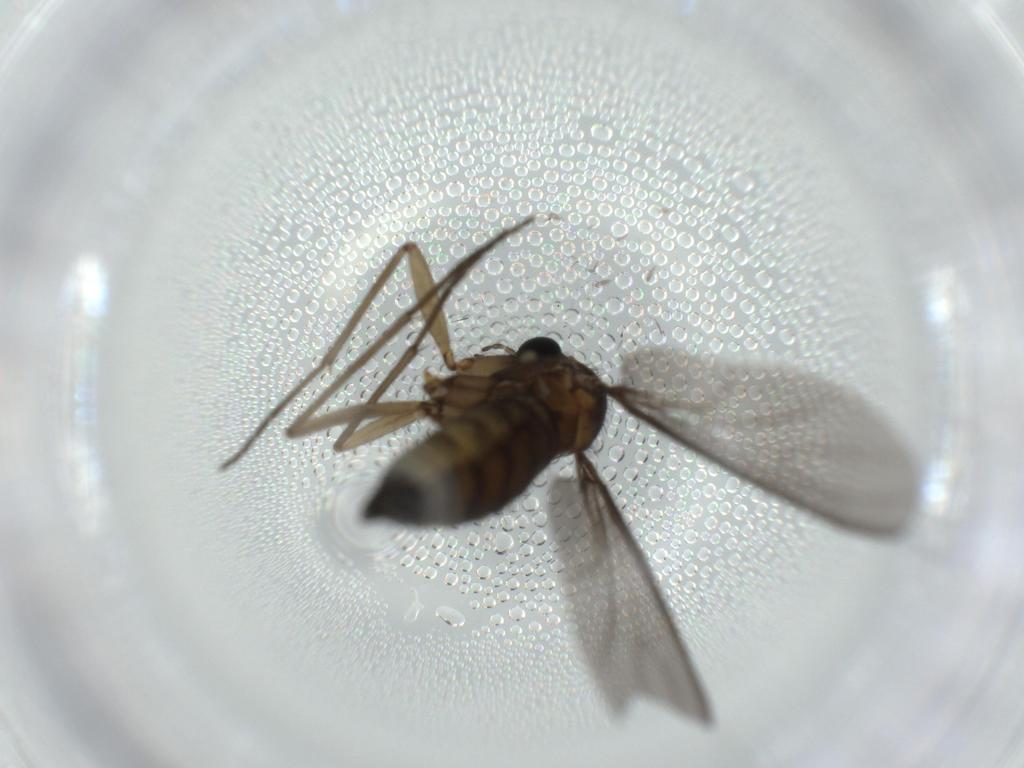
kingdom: Animalia
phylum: Arthropoda
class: Insecta
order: Diptera
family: Sciaridae
